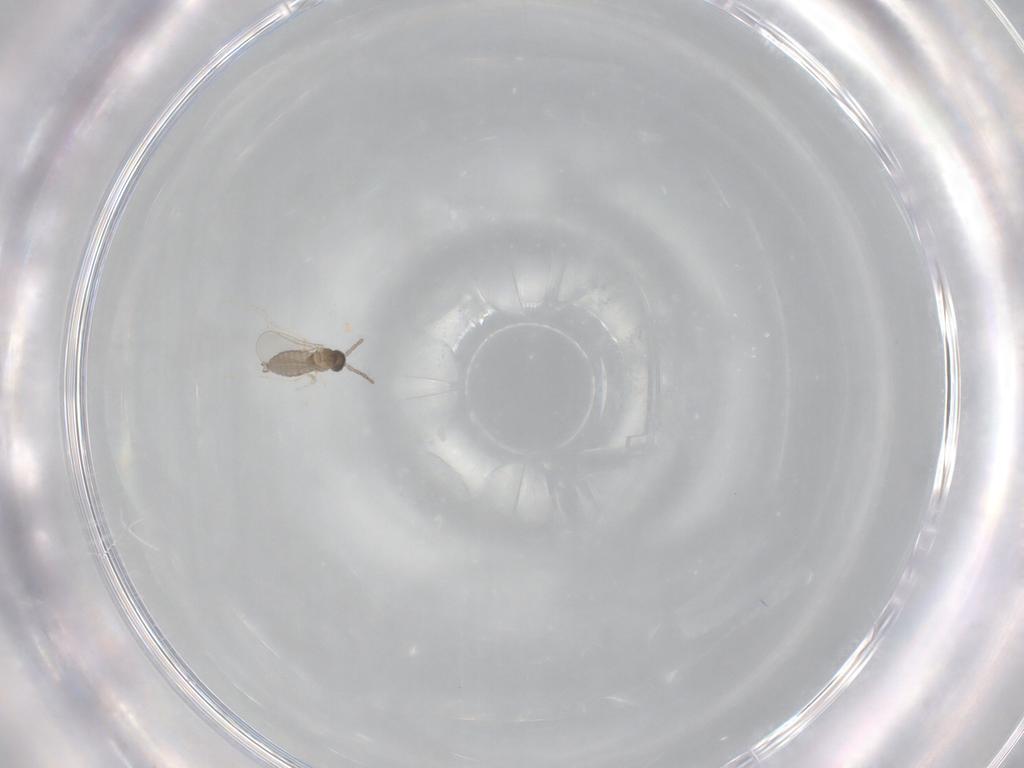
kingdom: Animalia
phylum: Arthropoda
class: Insecta
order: Diptera
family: Cecidomyiidae
